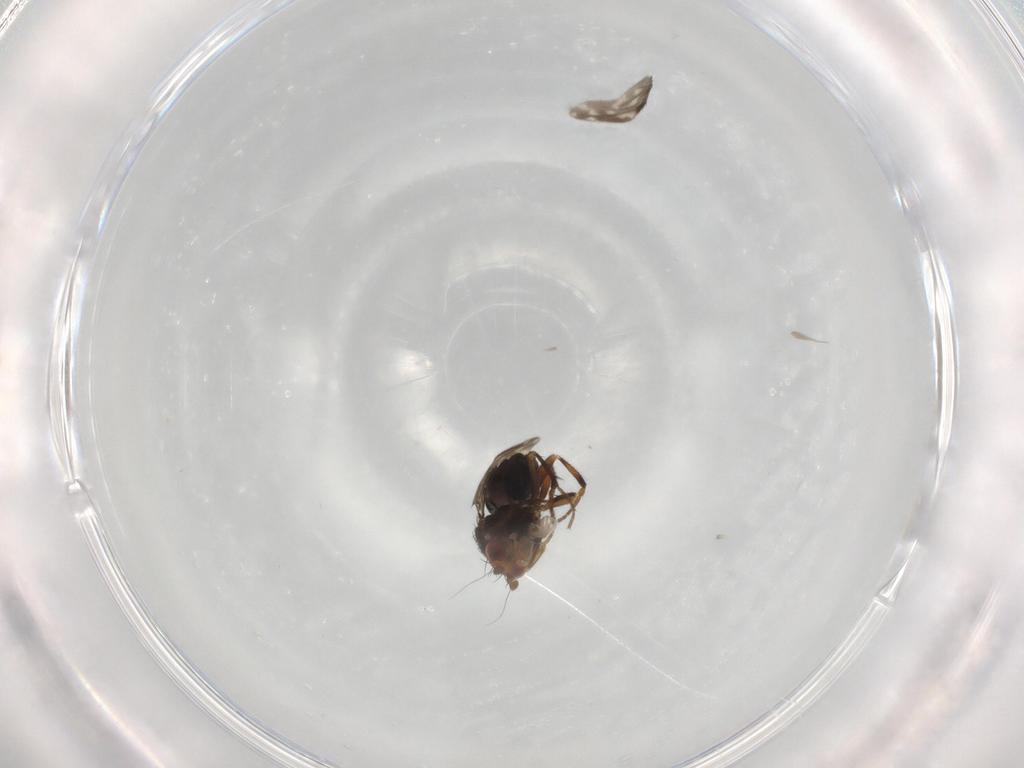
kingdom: Animalia
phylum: Arthropoda
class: Insecta
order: Diptera
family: Sphaeroceridae
